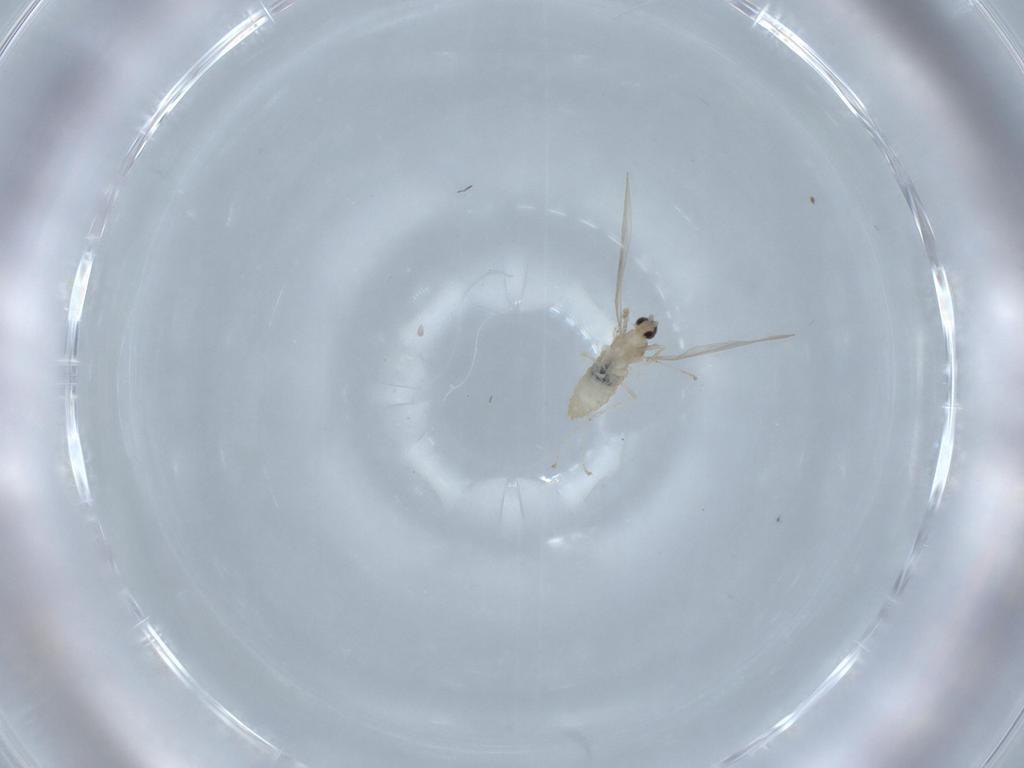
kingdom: Animalia
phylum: Arthropoda
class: Insecta
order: Diptera
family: Cecidomyiidae
